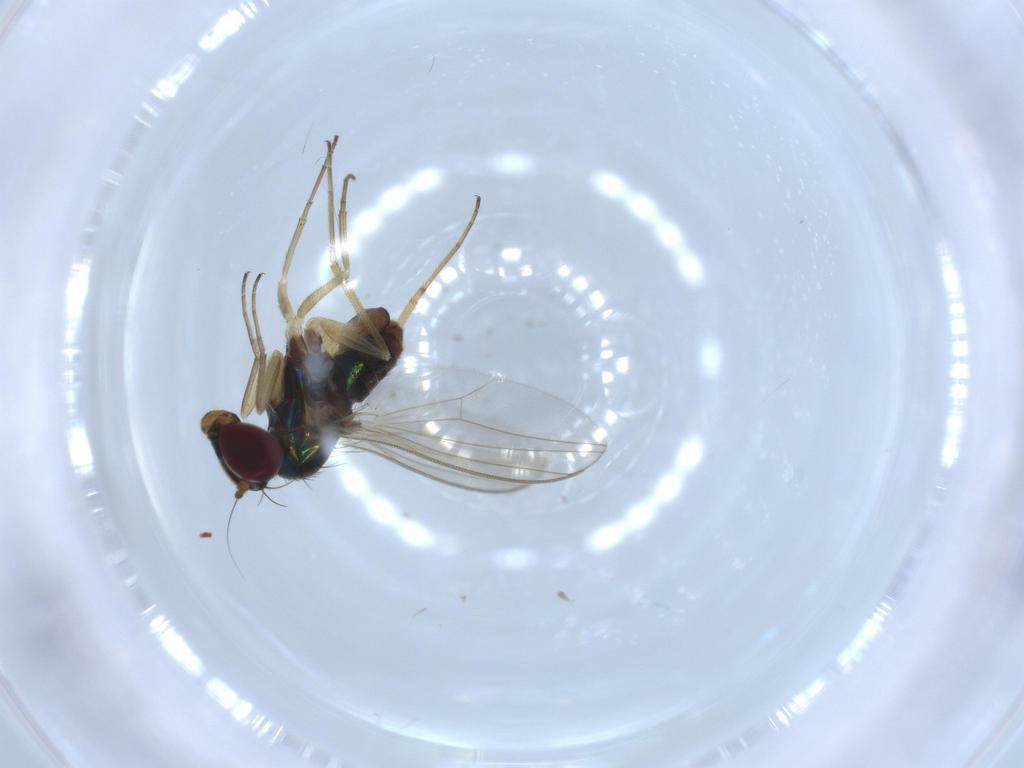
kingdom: Animalia
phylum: Arthropoda
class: Insecta
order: Diptera
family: Dolichopodidae
